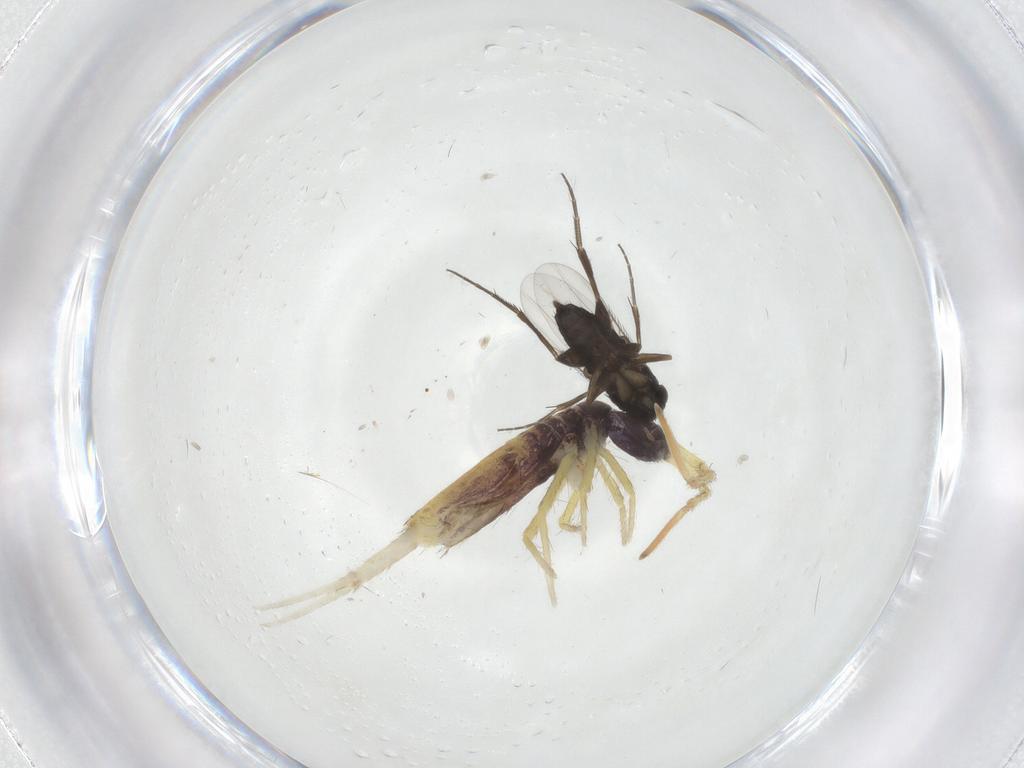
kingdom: Animalia
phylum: Arthropoda
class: Collembola
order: Entomobryomorpha
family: Entomobryidae
